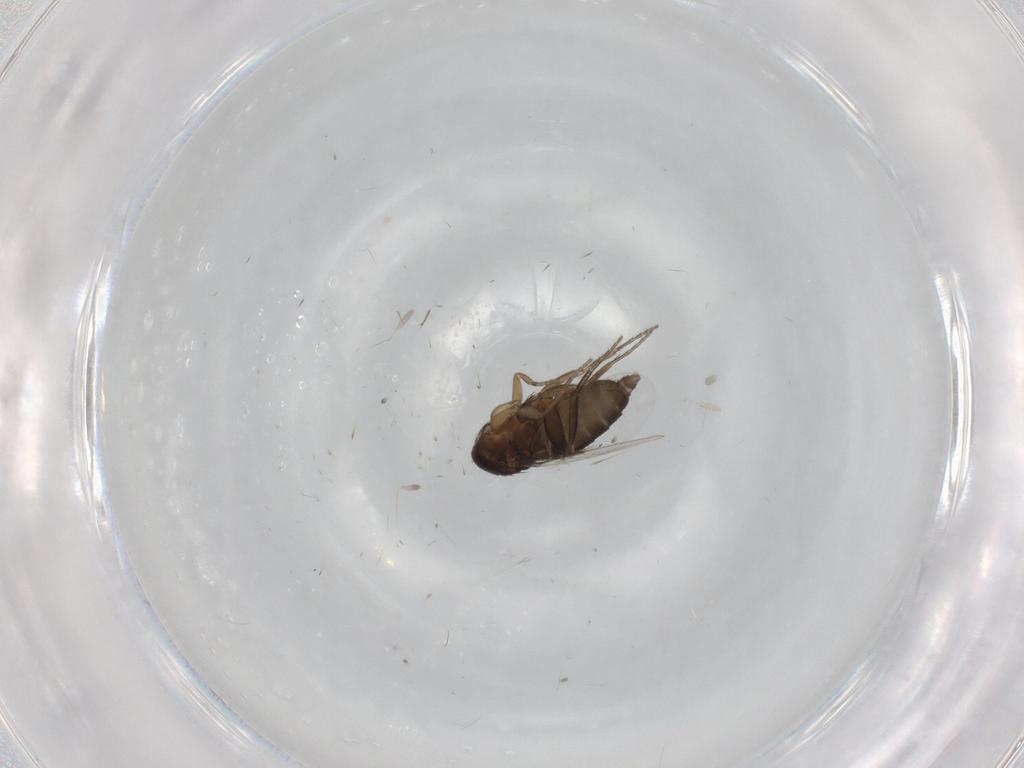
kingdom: Animalia
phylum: Arthropoda
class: Insecta
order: Diptera
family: Phoridae
